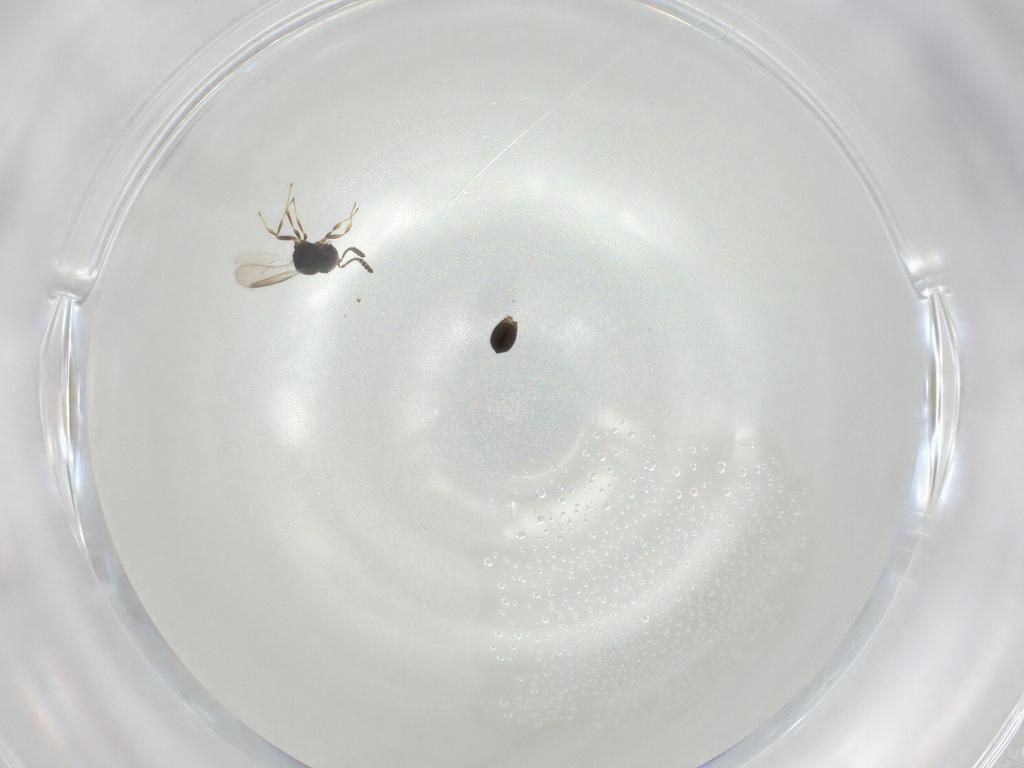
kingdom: Animalia
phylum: Arthropoda
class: Insecta
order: Hymenoptera
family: Scelionidae
